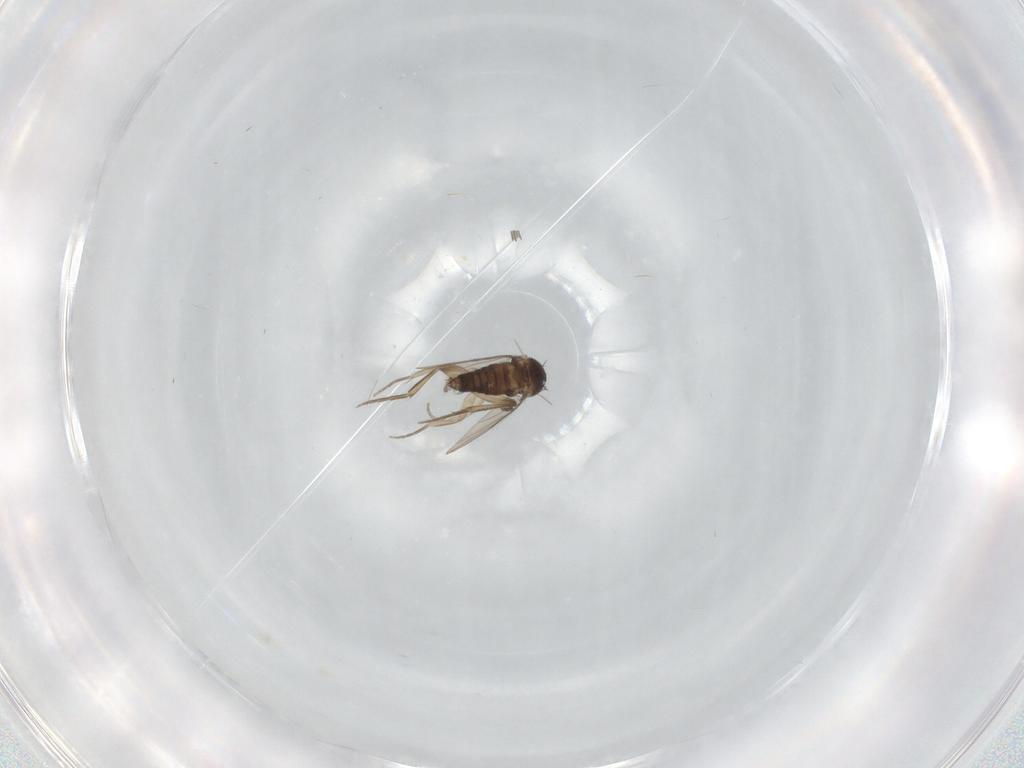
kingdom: Animalia
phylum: Arthropoda
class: Insecta
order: Diptera
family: Phoridae
